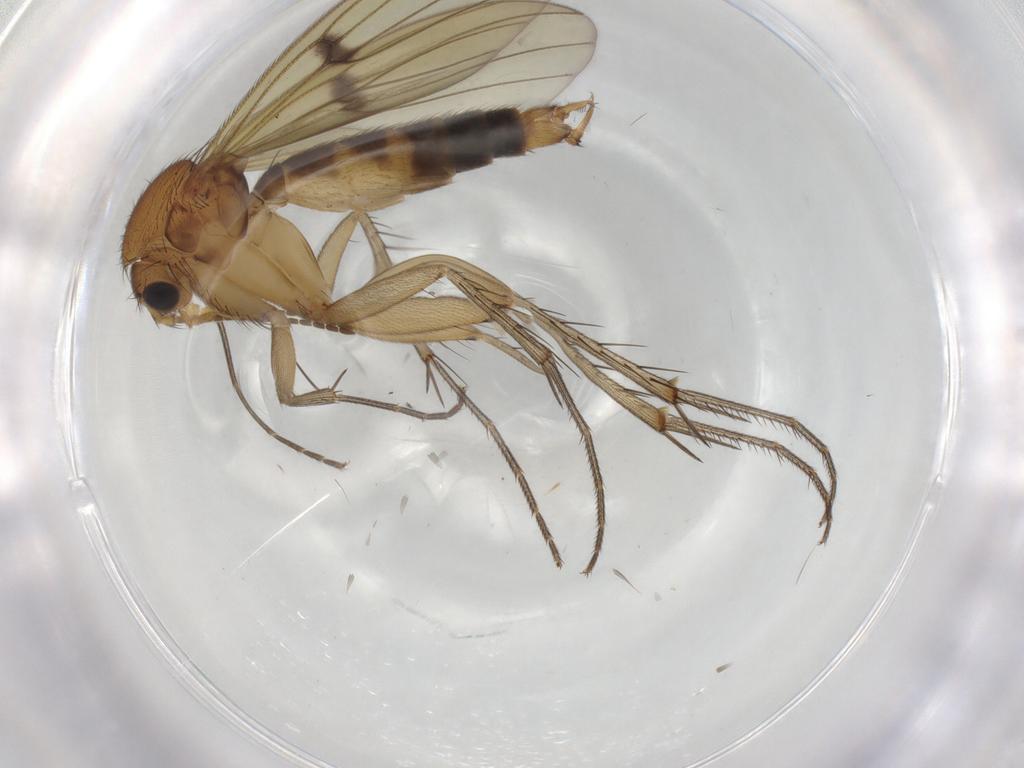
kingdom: Animalia
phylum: Arthropoda
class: Insecta
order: Diptera
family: Mycetophilidae
